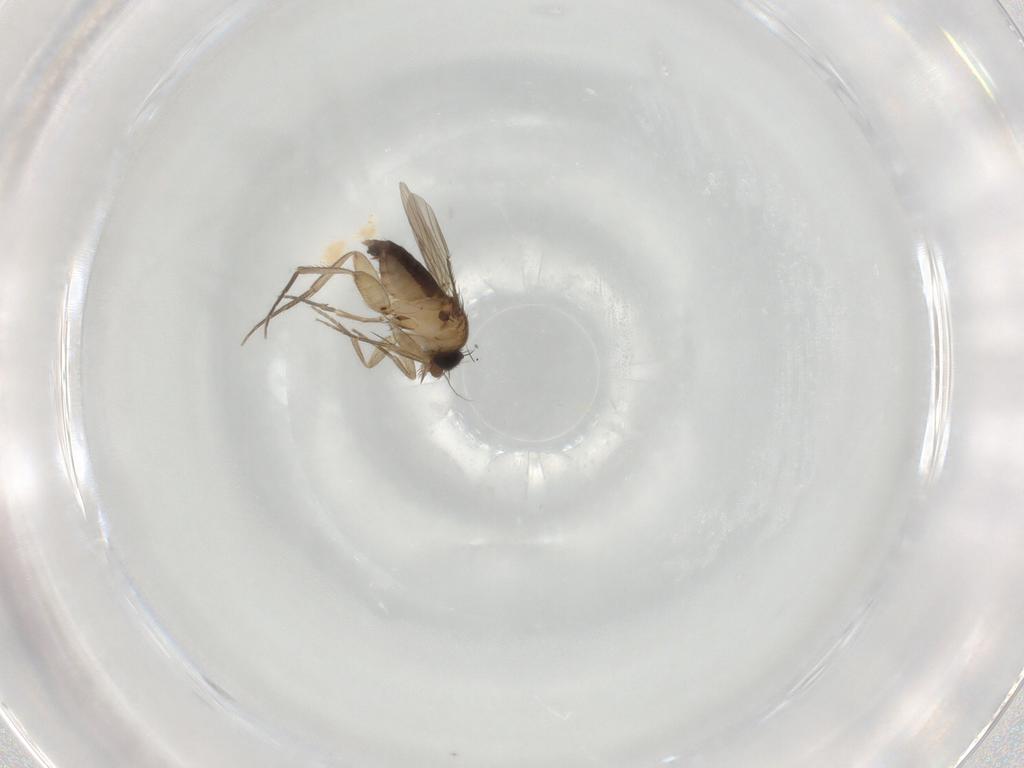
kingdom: Animalia
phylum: Arthropoda
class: Insecta
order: Diptera
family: Phoridae
